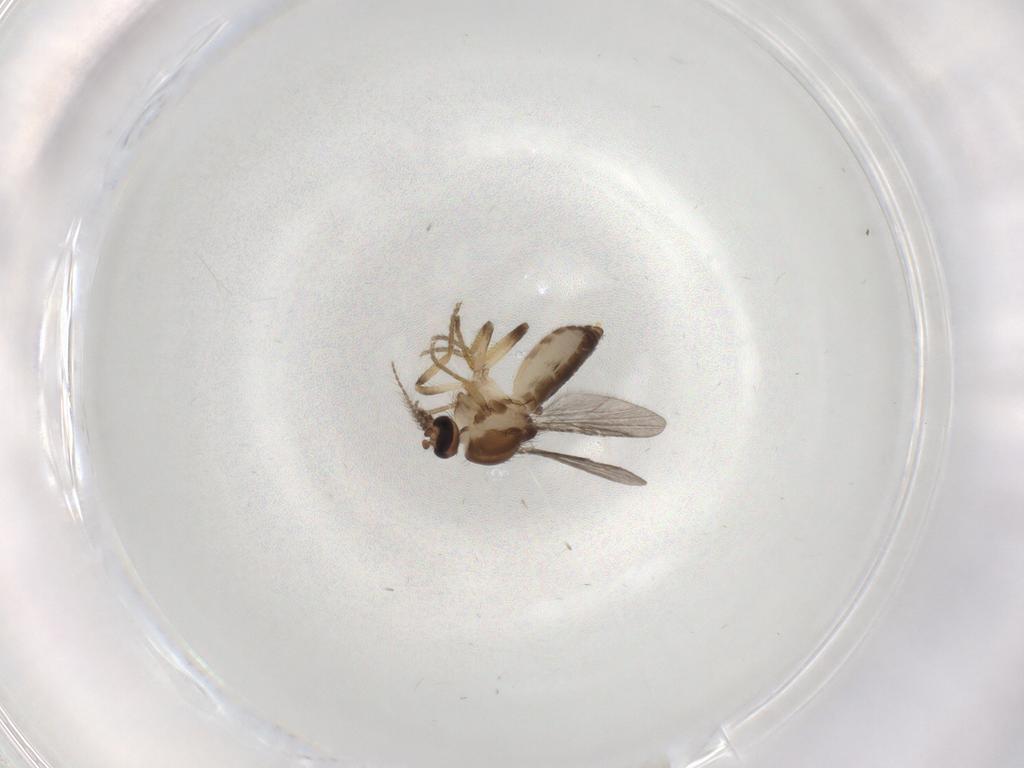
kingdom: Animalia
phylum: Arthropoda
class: Insecta
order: Diptera
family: Ceratopogonidae
